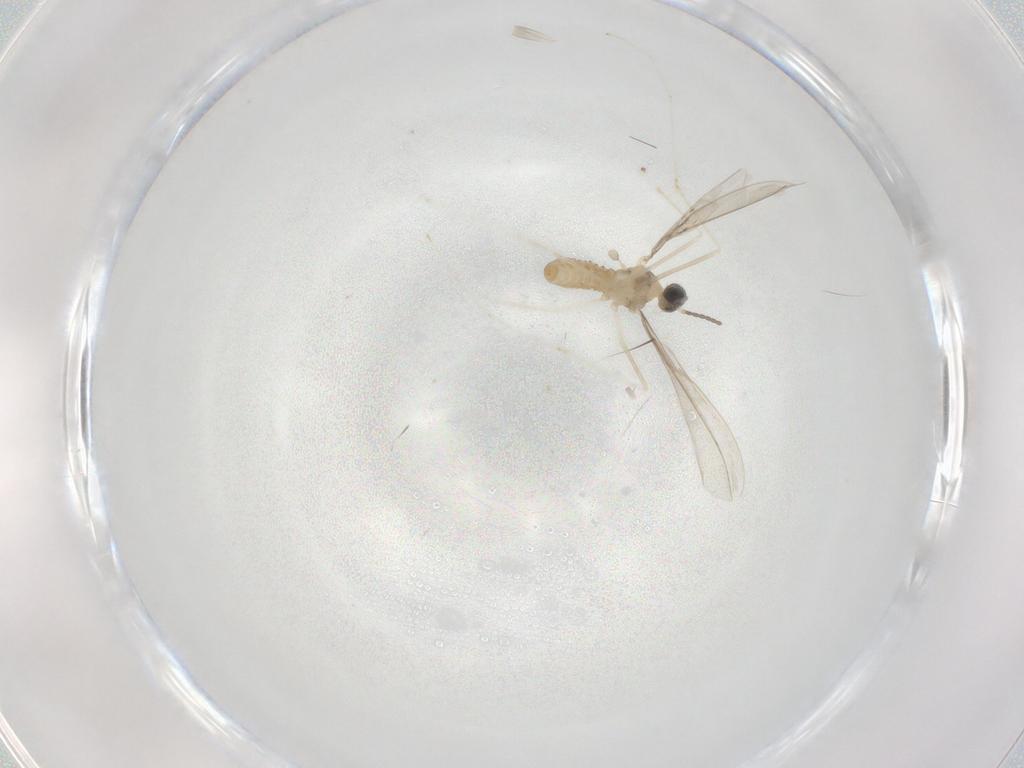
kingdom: Animalia
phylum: Arthropoda
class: Insecta
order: Diptera
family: Cecidomyiidae
